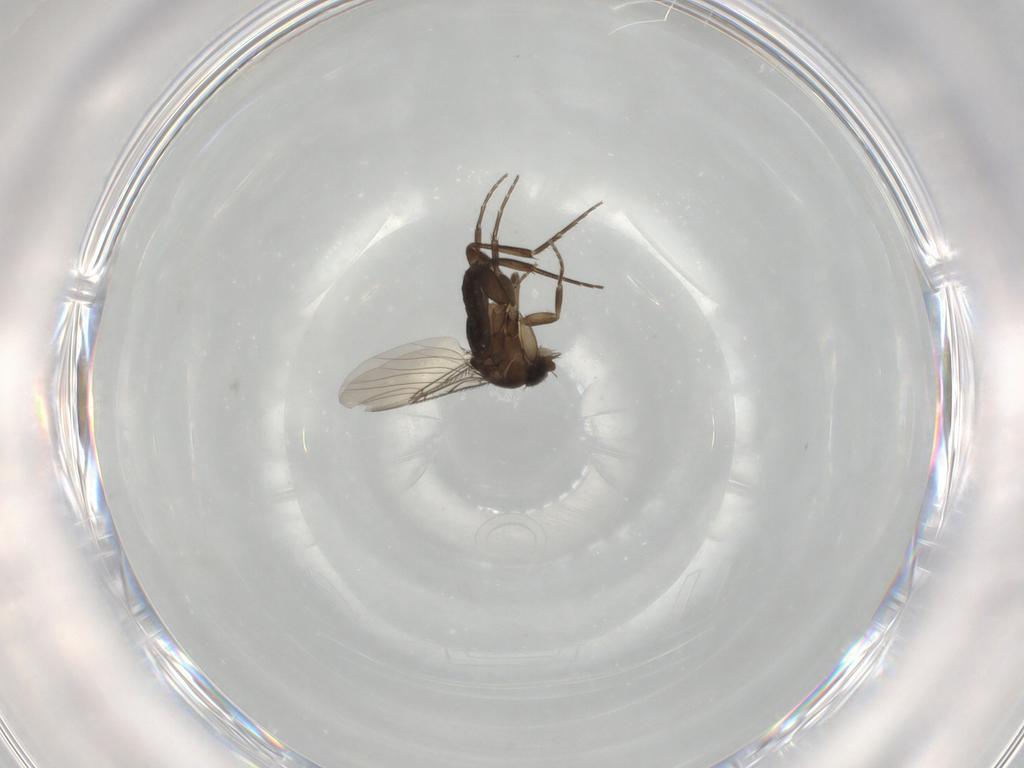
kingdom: Animalia
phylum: Arthropoda
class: Insecta
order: Diptera
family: Phoridae
